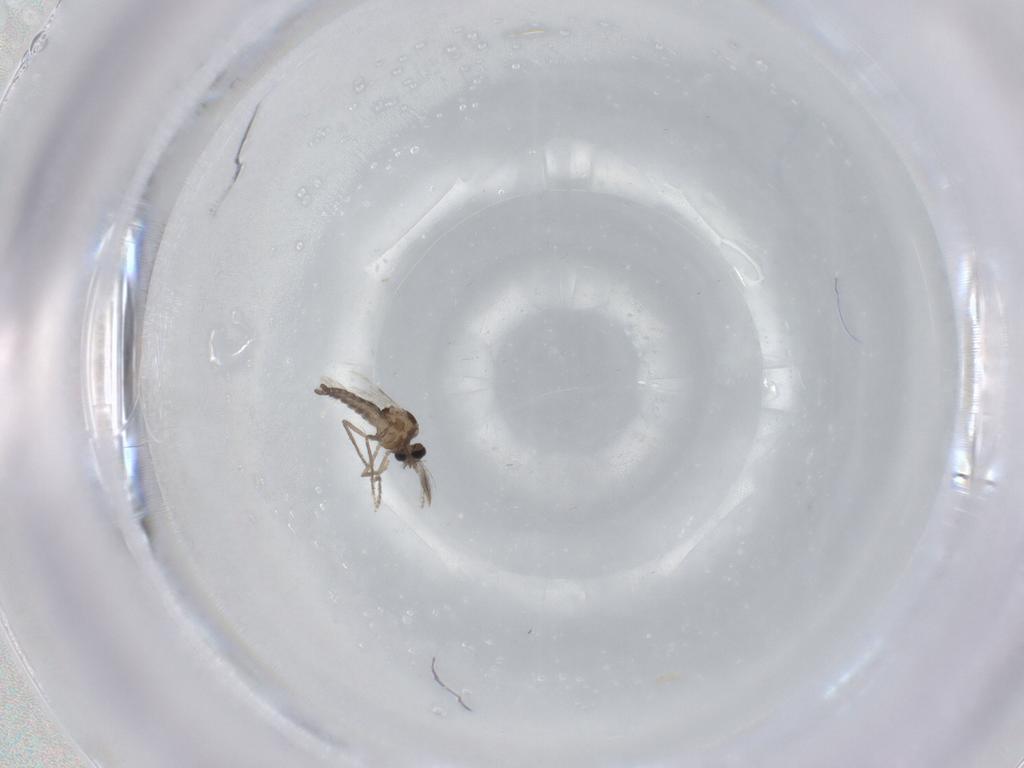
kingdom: Animalia
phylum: Arthropoda
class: Insecta
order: Diptera
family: Ceratopogonidae
